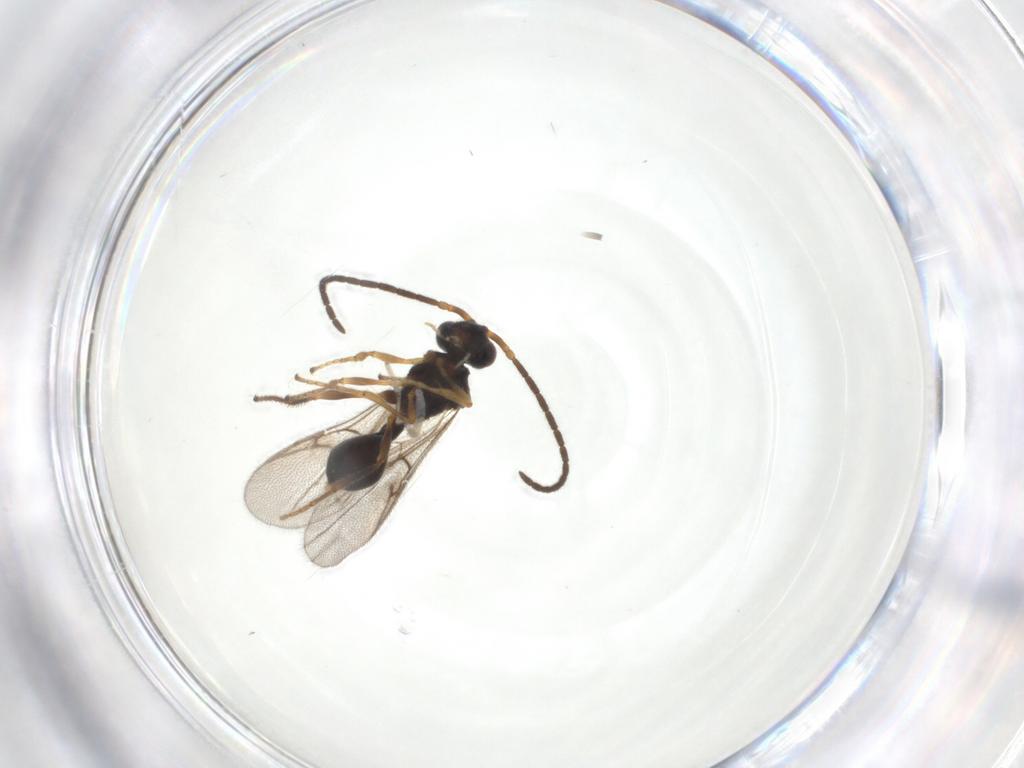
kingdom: Animalia
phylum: Arthropoda
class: Insecta
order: Hymenoptera
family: Diapriidae
